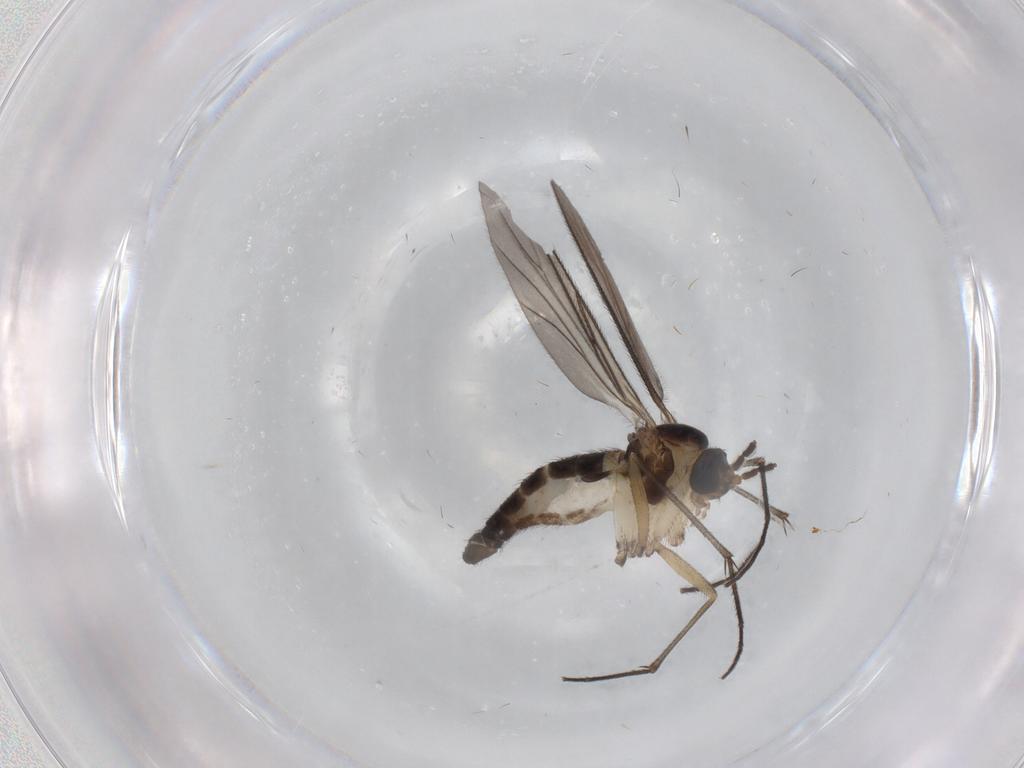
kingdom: Animalia
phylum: Arthropoda
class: Insecta
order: Diptera
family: Sciaridae
